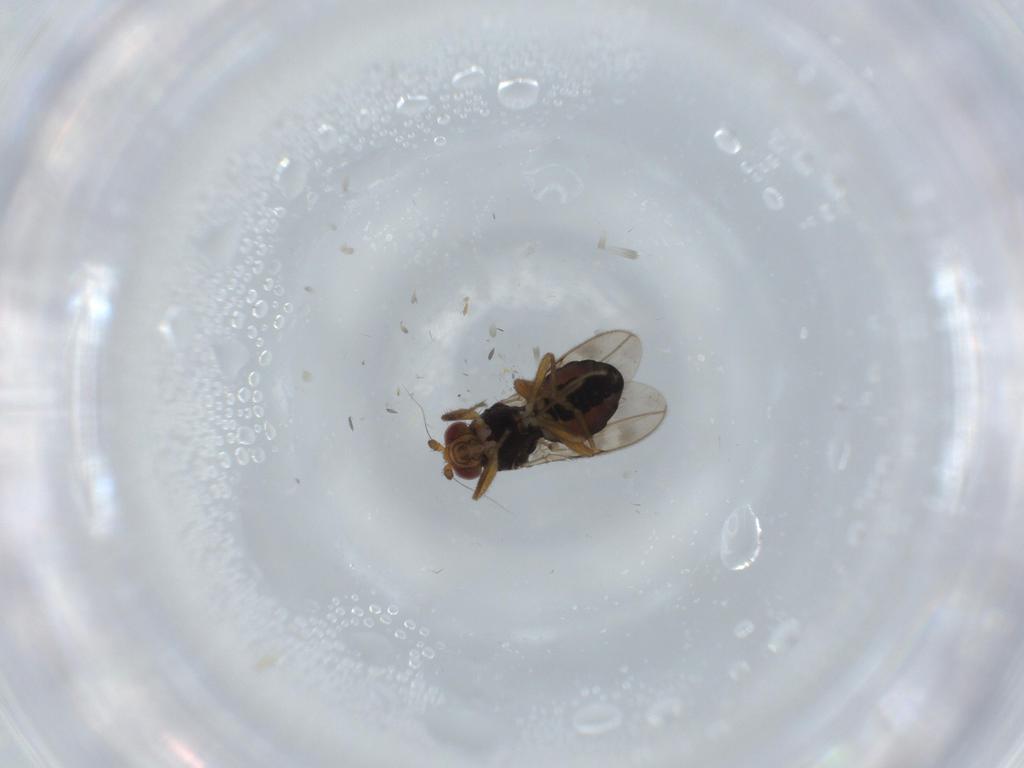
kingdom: Animalia
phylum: Arthropoda
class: Insecta
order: Diptera
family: Sphaeroceridae
